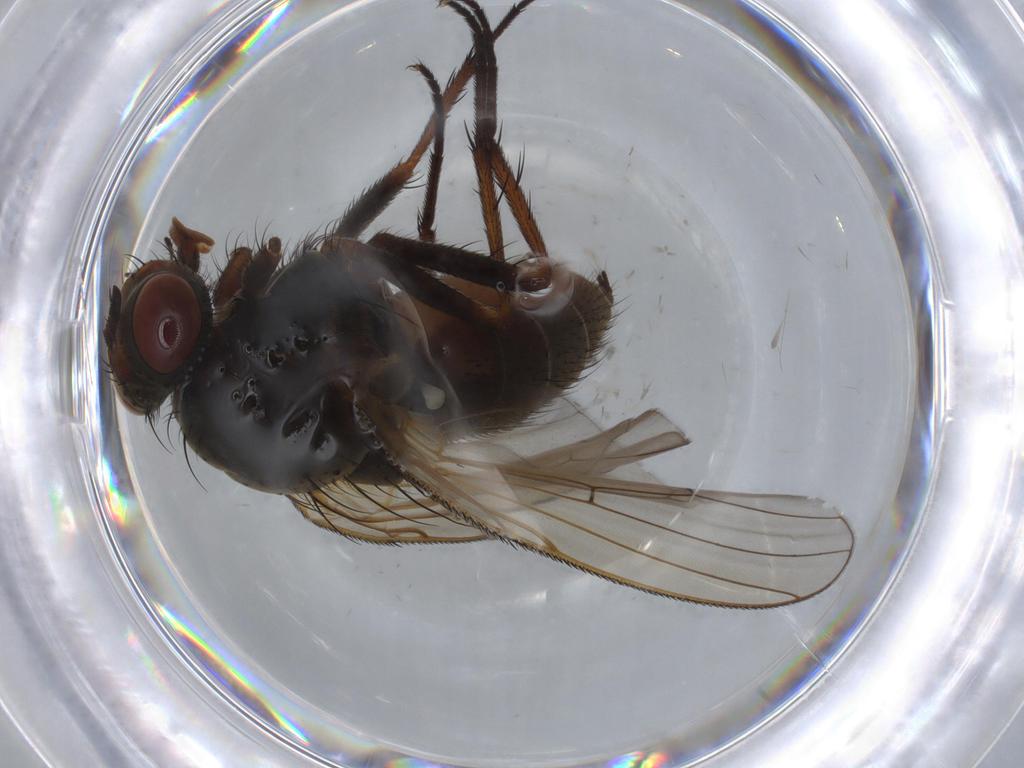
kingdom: Animalia
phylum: Arthropoda
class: Insecta
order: Diptera
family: Anthomyiidae
